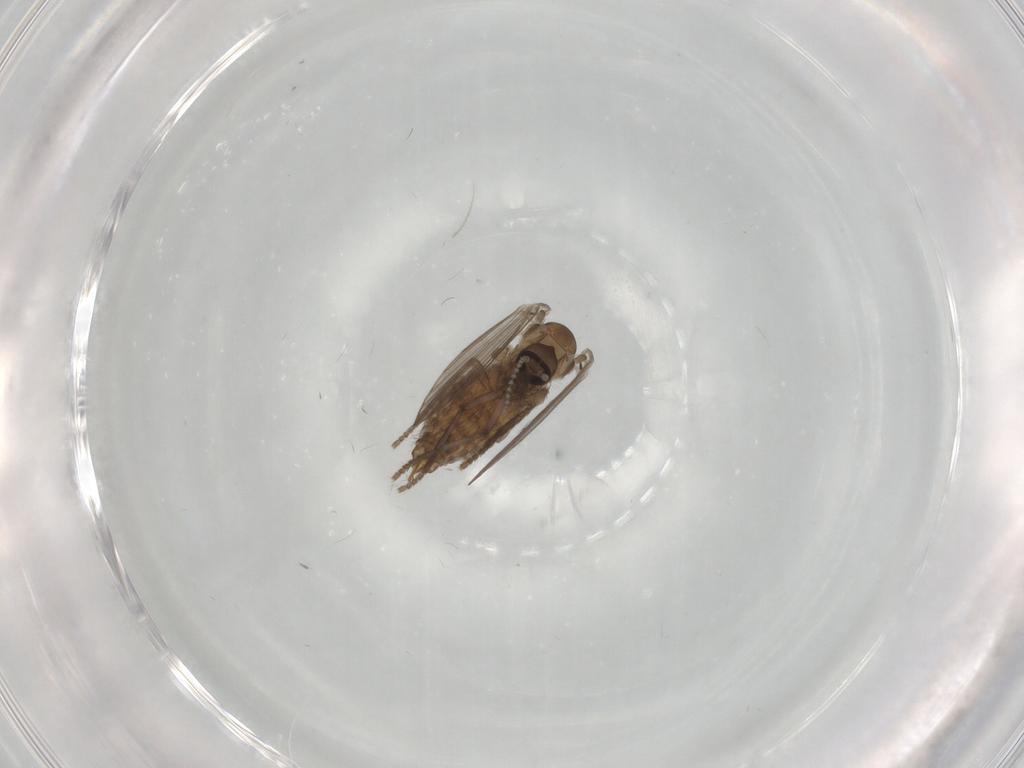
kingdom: Animalia
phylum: Arthropoda
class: Insecta
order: Diptera
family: Psychodidae
